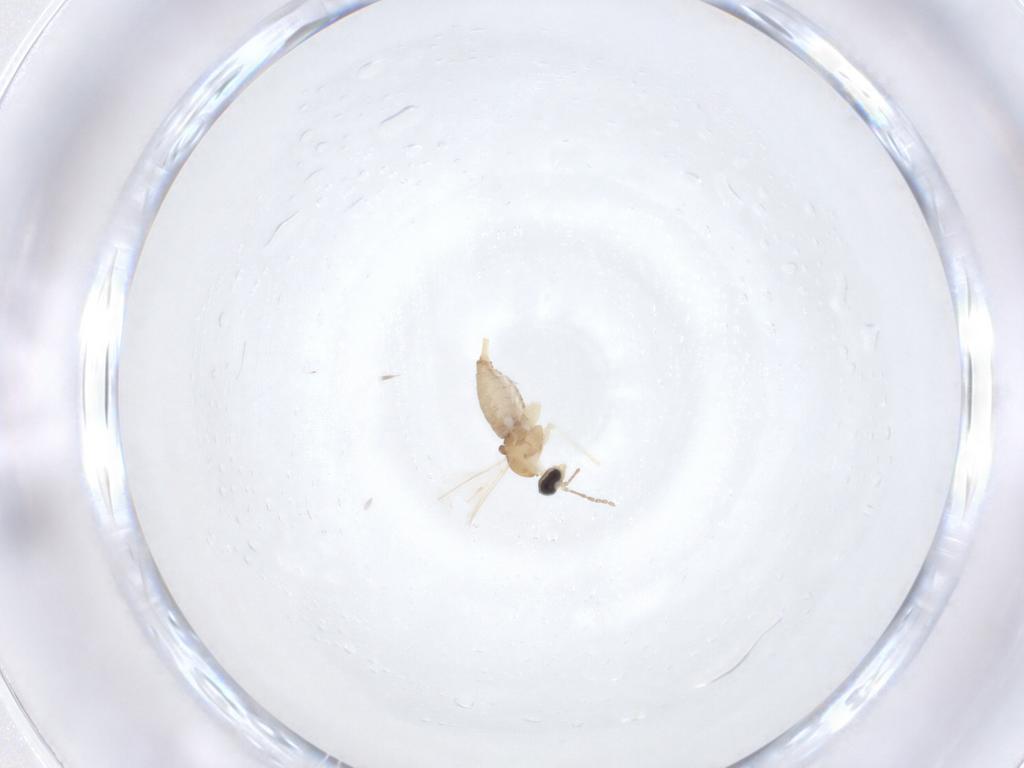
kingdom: Animalia
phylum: Arthropoda
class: Insecta
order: Diptera
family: Cecidomyiidae
